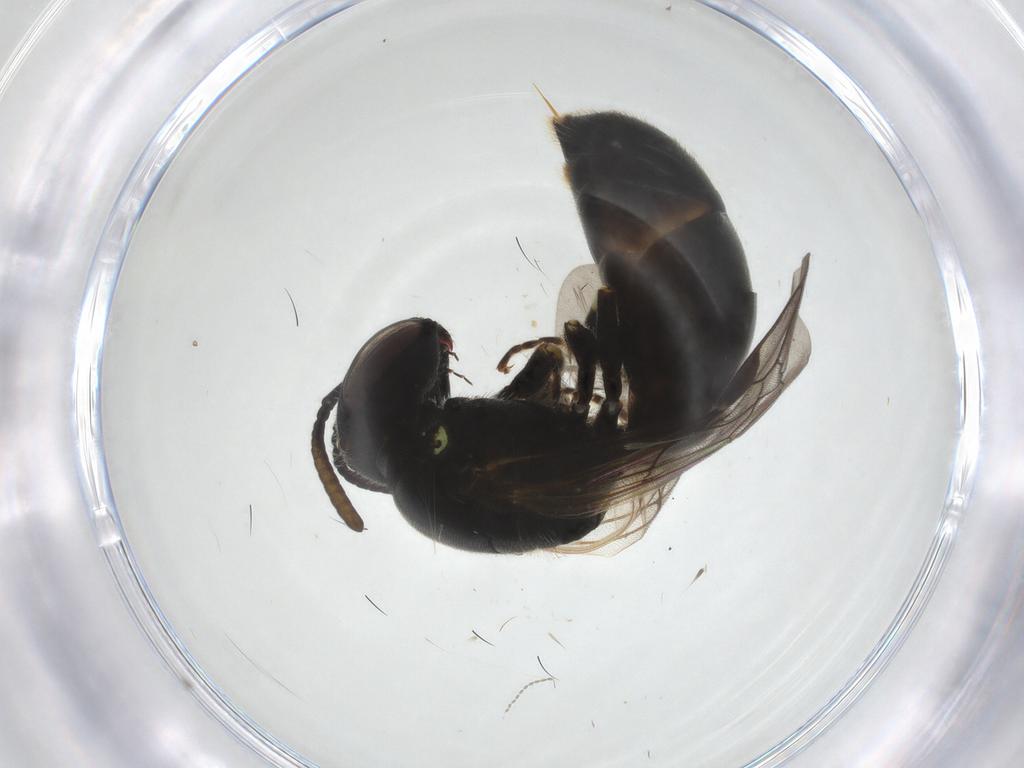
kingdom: Animalia
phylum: Arthropoda
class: Insecta
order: Hymenoptera
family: Colletidae
